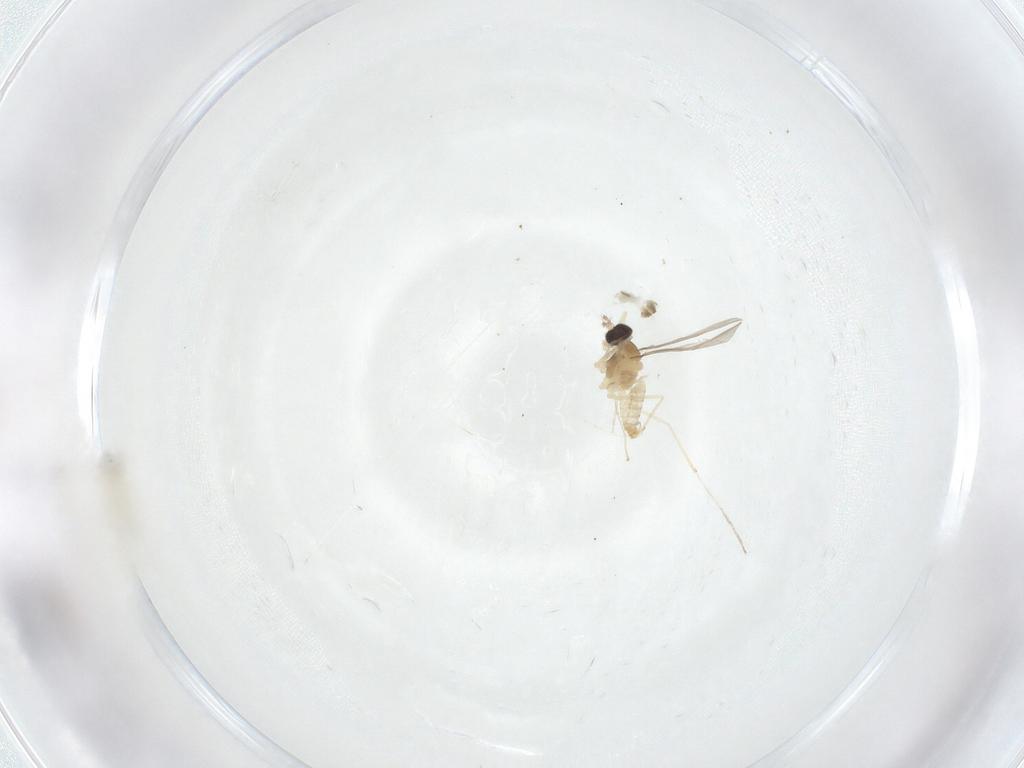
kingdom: Animalia
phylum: Arthropoda
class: Insecta
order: Diptera
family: Cecidomyiidae
